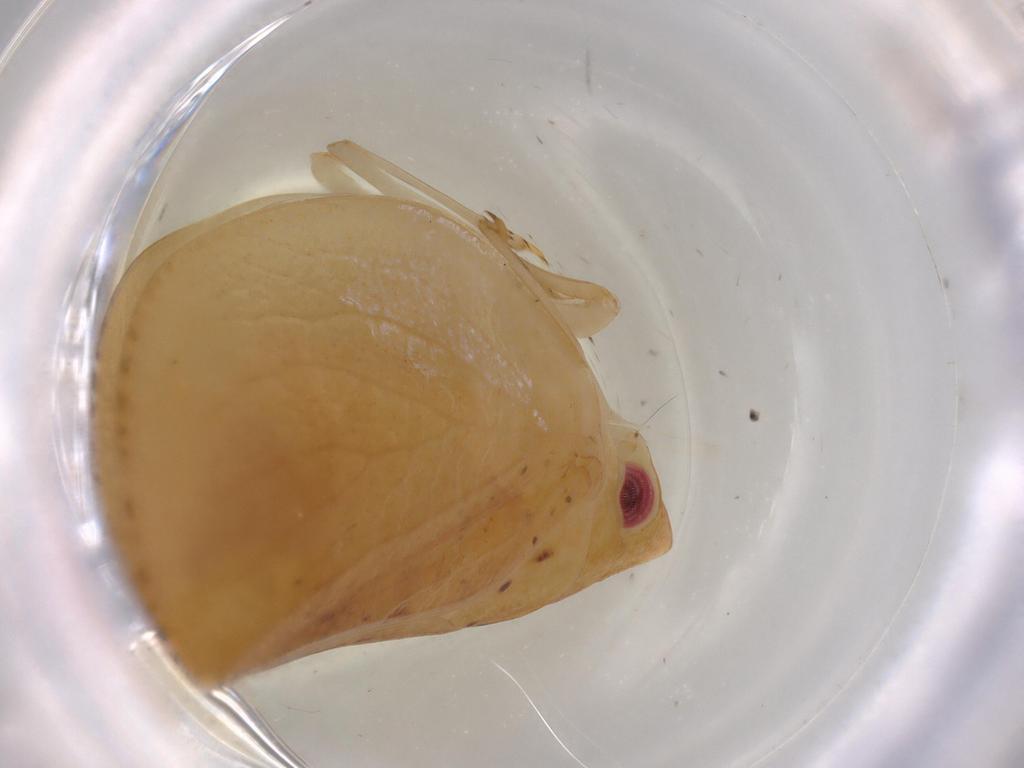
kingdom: Animalia
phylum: Arthropoda
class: Insecta
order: Hemiptera
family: Acanaloniidae
